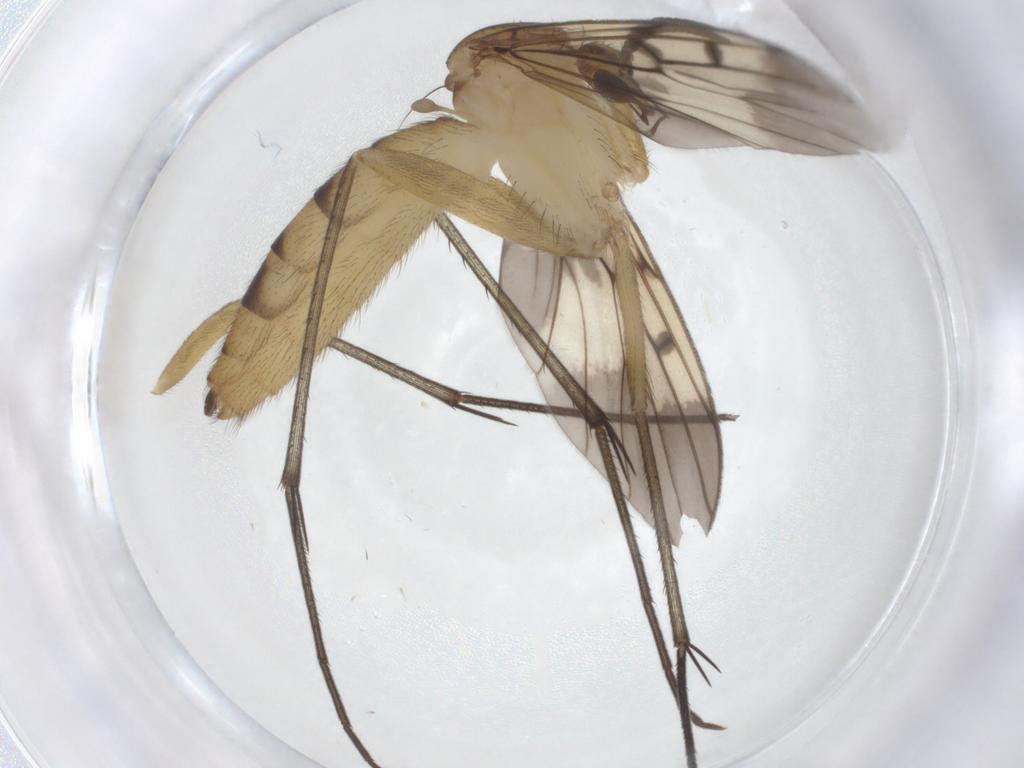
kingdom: Animalia
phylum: Arthropoda
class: Insecta
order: Diptera
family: Mycetophilidae
